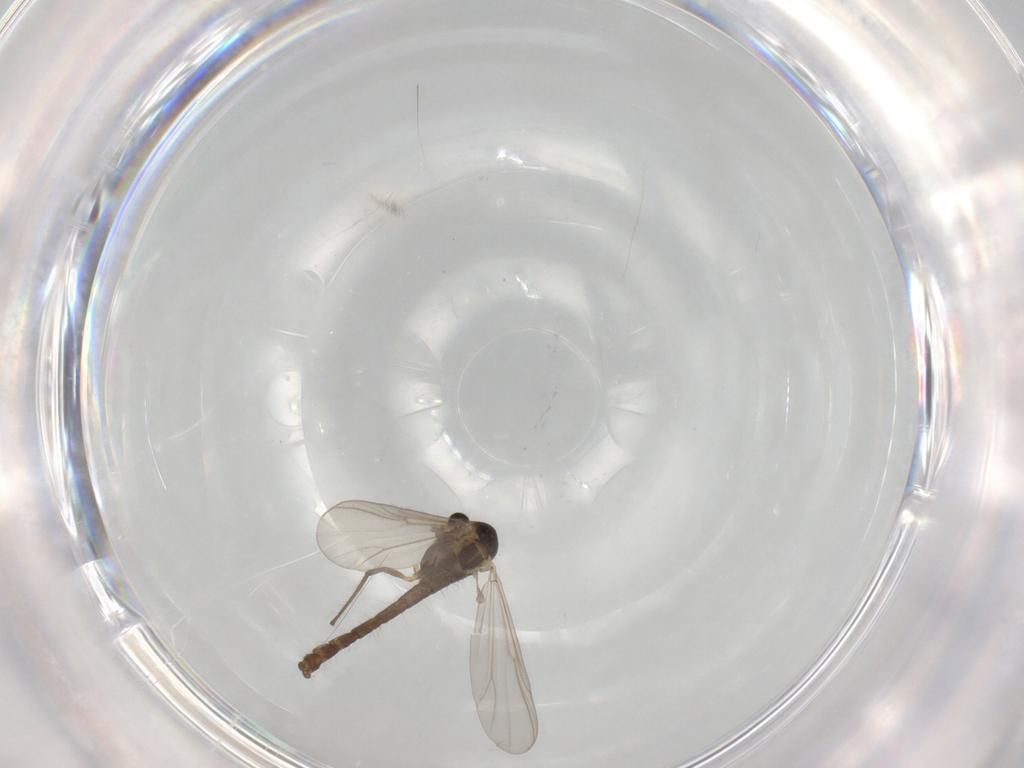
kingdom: Animalia
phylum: Arthropoda
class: Insecta
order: Diptera
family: Chironomidae
